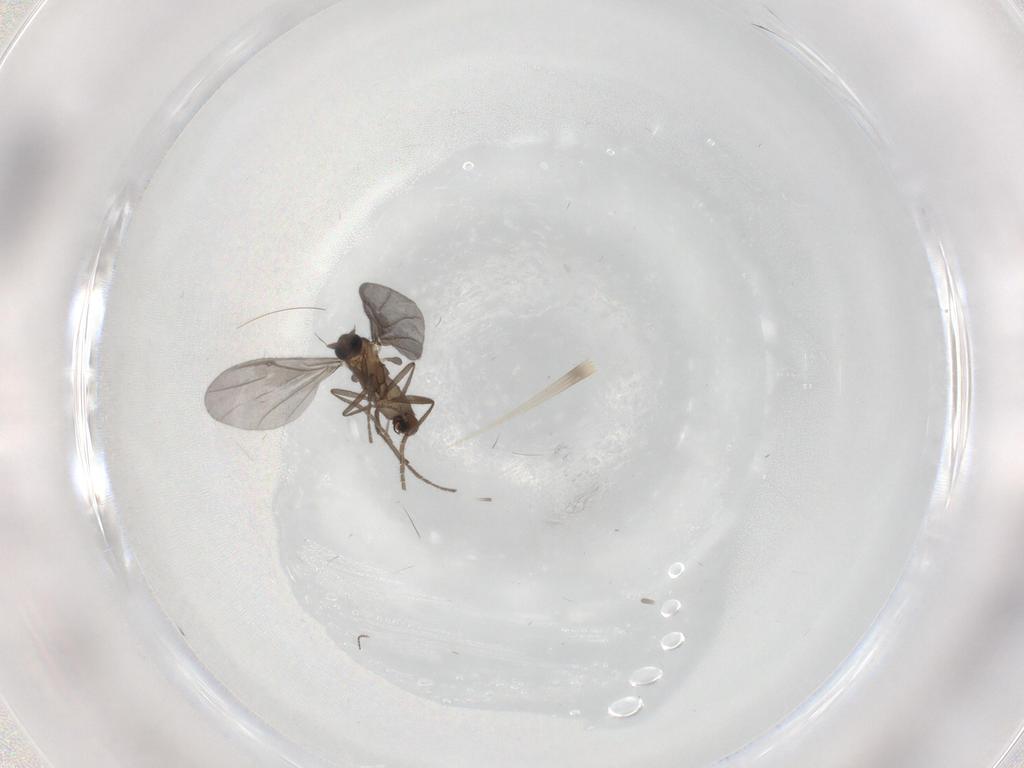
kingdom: Animalia
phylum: Arthropoda
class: Insecta
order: Diptera
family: Phoridae
